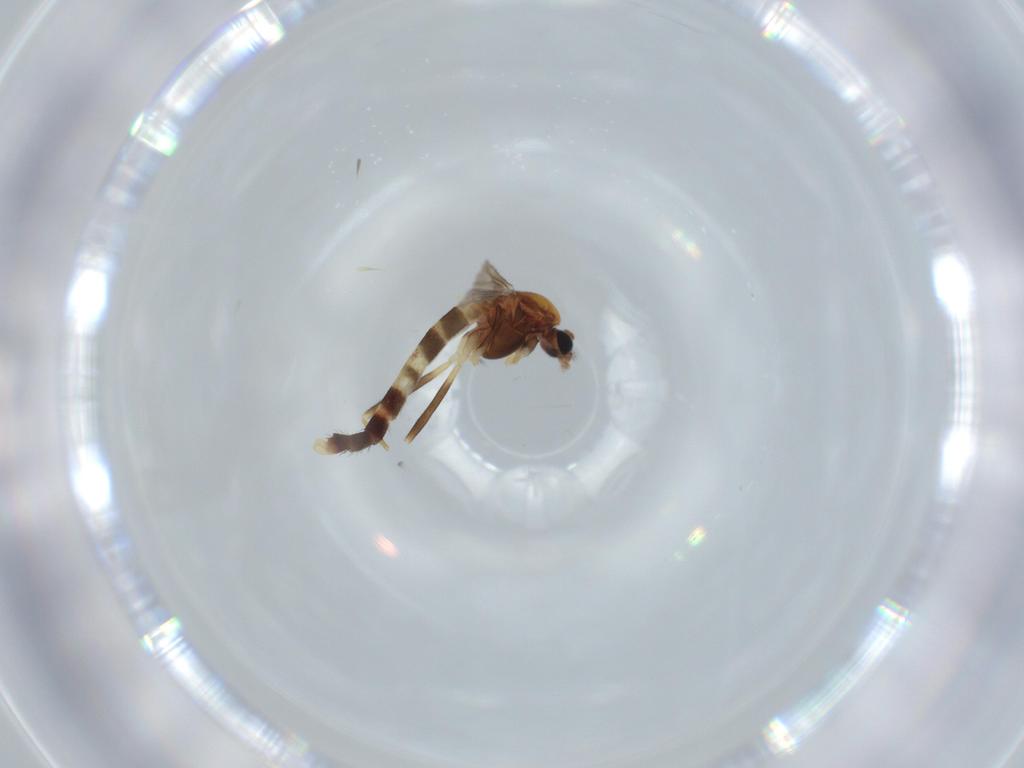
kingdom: Animalia
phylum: Arthropoda
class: Insecta
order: Diptera
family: Chironomidae
